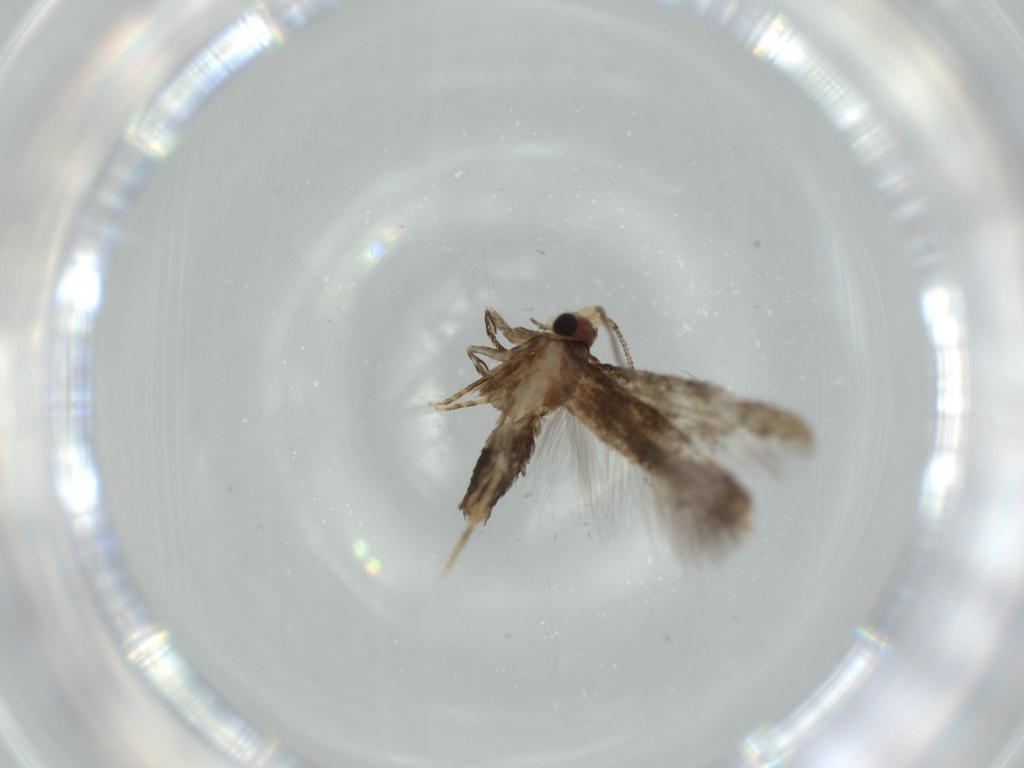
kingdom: Animalia
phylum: Arthropoda
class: Insecta
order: Lepidoptera
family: Tineidae
